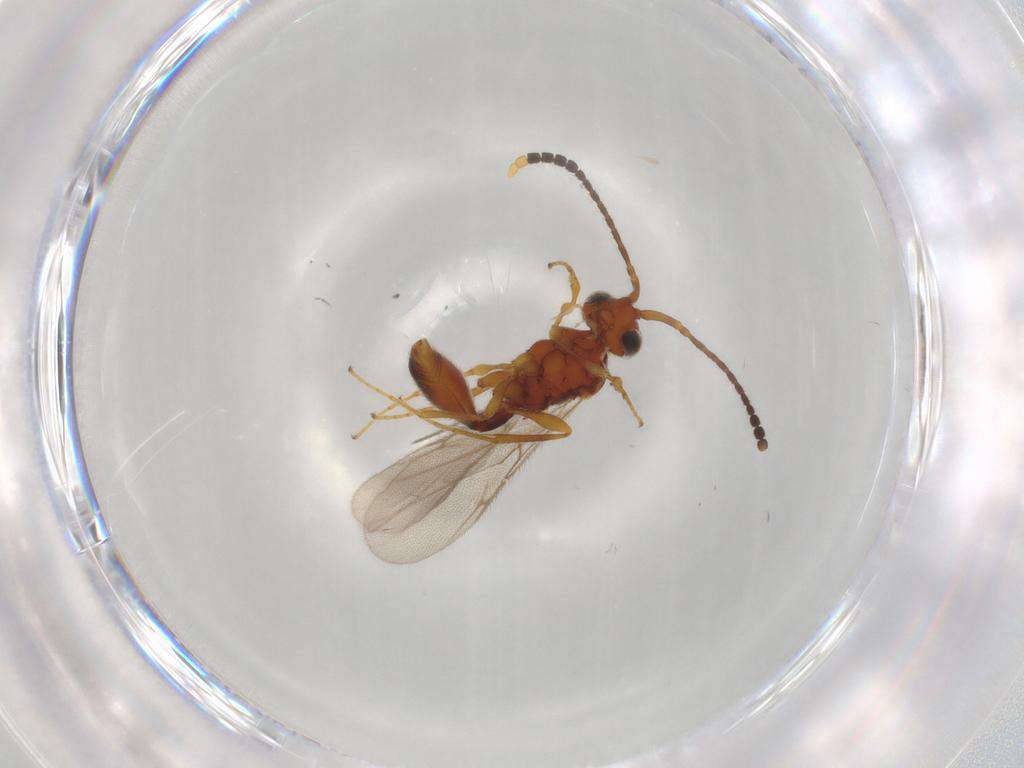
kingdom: Animalia
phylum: Arthropoda
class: Insecta
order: Hymenoptera
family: Diapriidae
